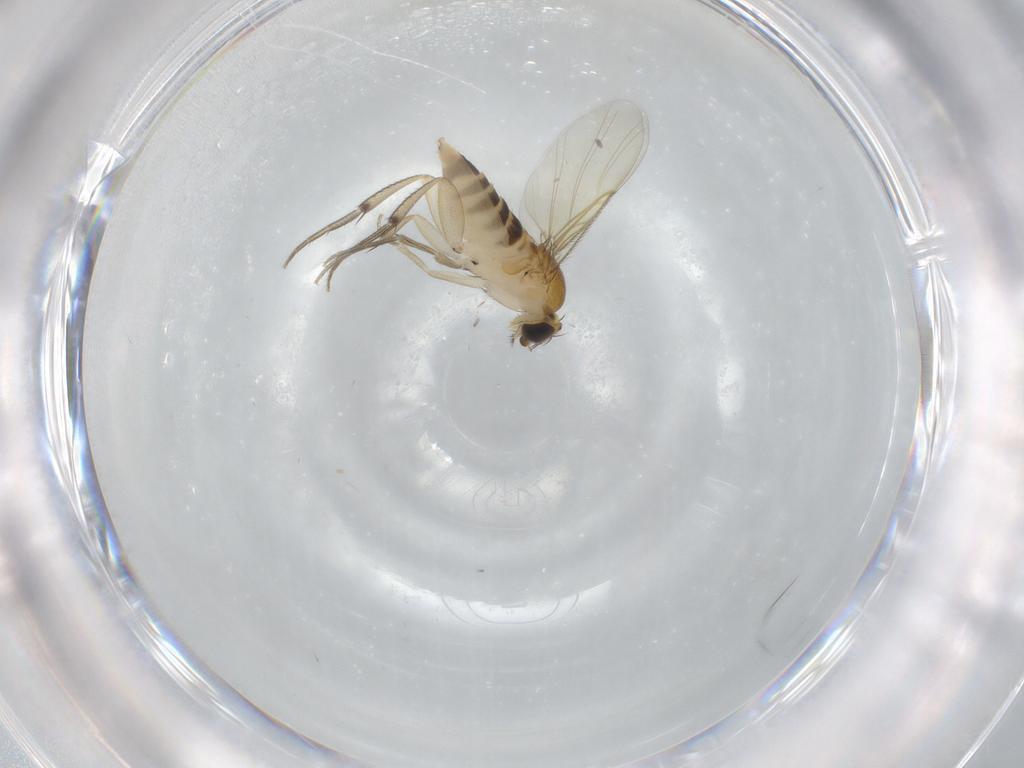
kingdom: Animalia
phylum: Arthropoda
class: Insecta
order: Diptera
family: Phoridae
